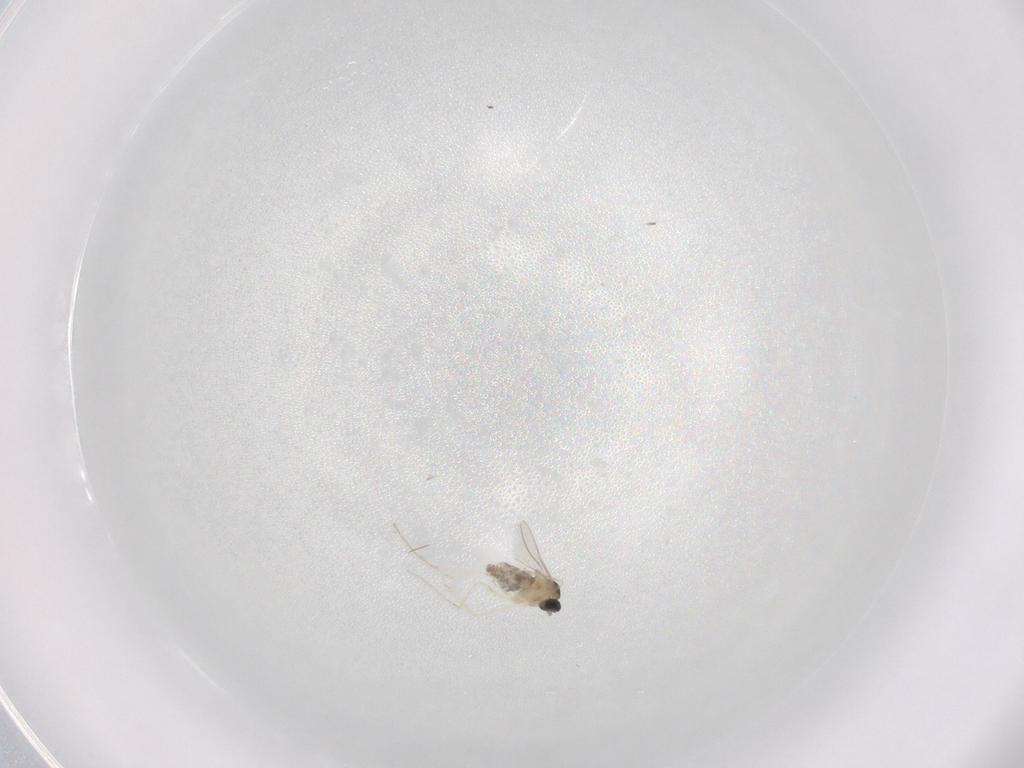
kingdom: Animalia
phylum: Arthropoda
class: Insecta
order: Diptera
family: Cecidomyiidae
